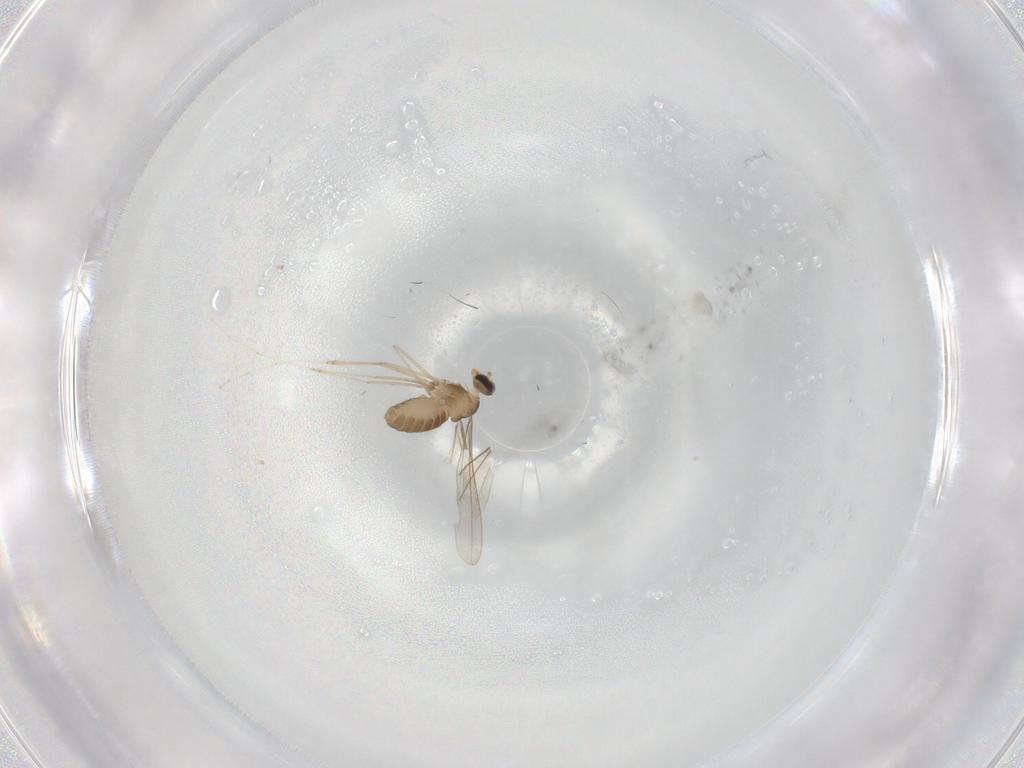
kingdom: Animalia
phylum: Arthropoda
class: Insecta
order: Diptera
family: Cecidomyiidae
